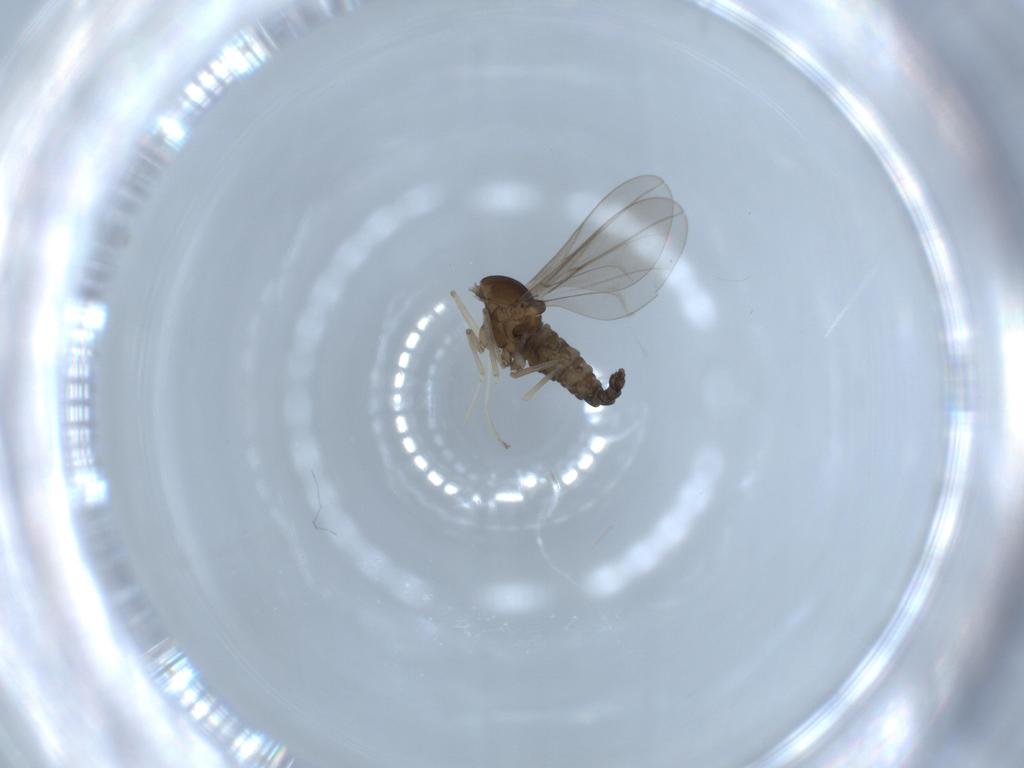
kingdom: Animalia
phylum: Arthropoda
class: Insecta
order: Diptera
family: Cecidomyiidae
